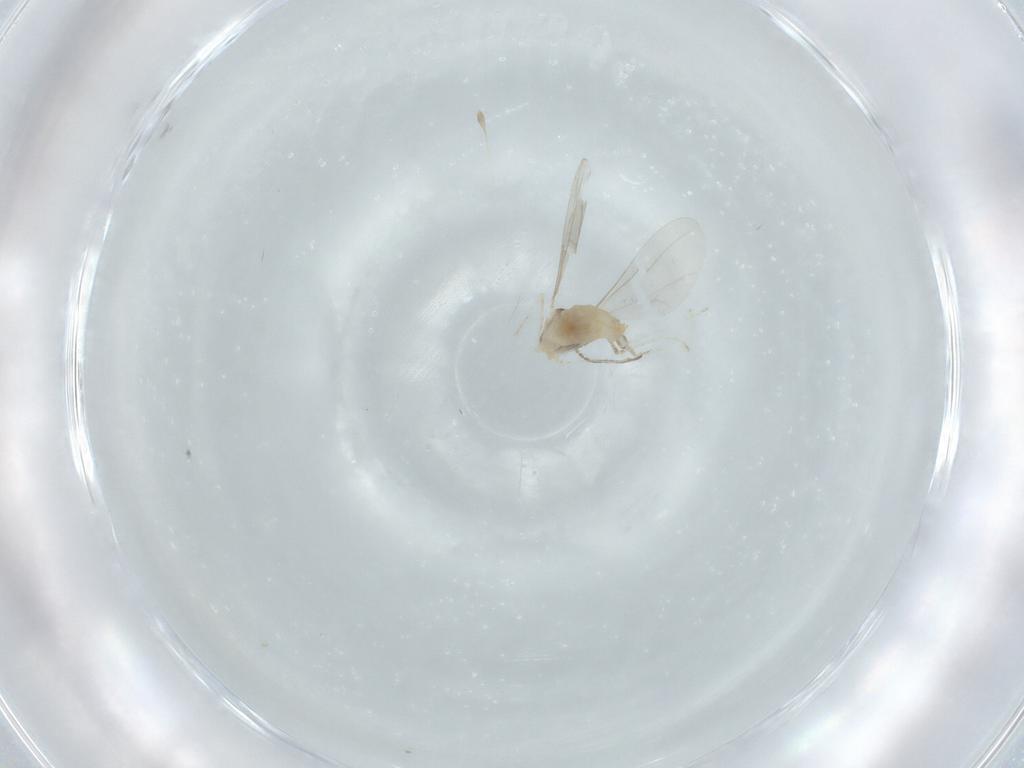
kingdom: Animalia
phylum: Arthropoda
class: Insecta
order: Diptera
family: Cecidomyiidae
